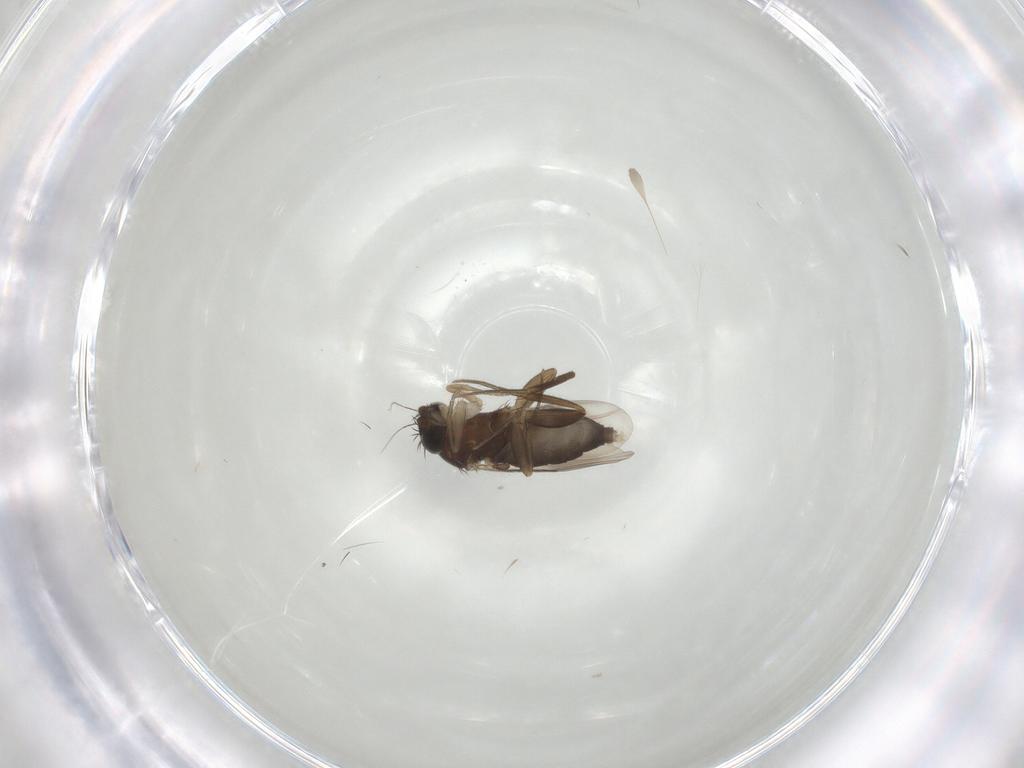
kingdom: Animalia
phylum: Arthropoda
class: Insecta
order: Diptera
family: Phoridae
